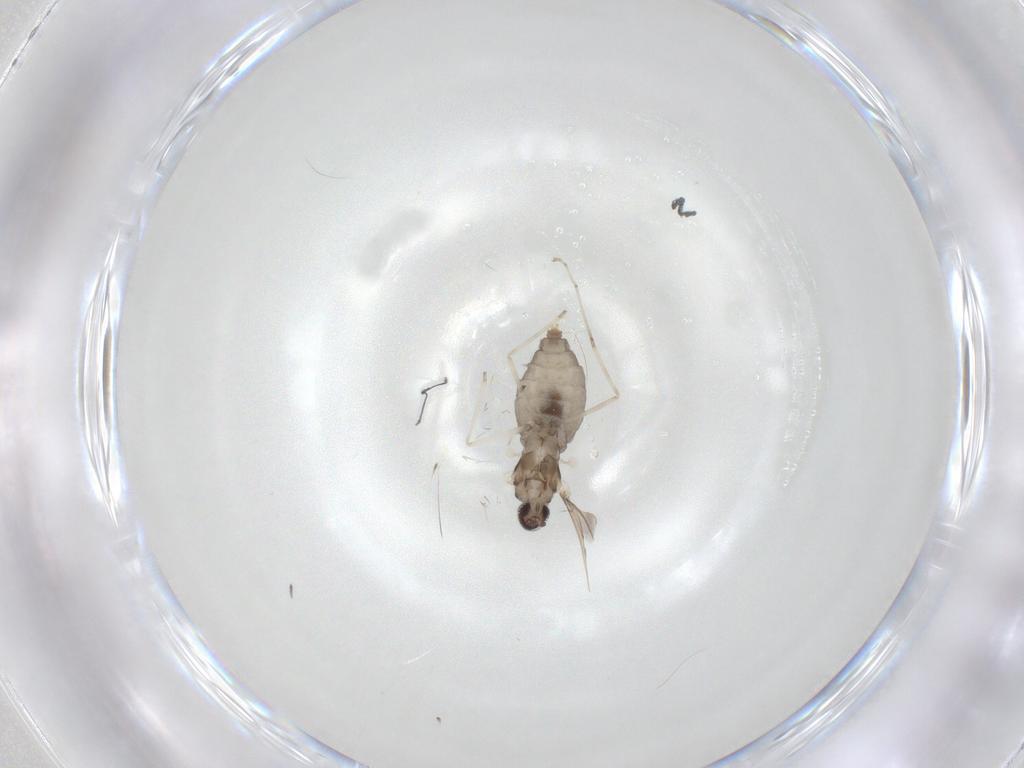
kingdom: Animalia
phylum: Arthropoda
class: Insecta
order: Diptera
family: Cecidomyiidae
